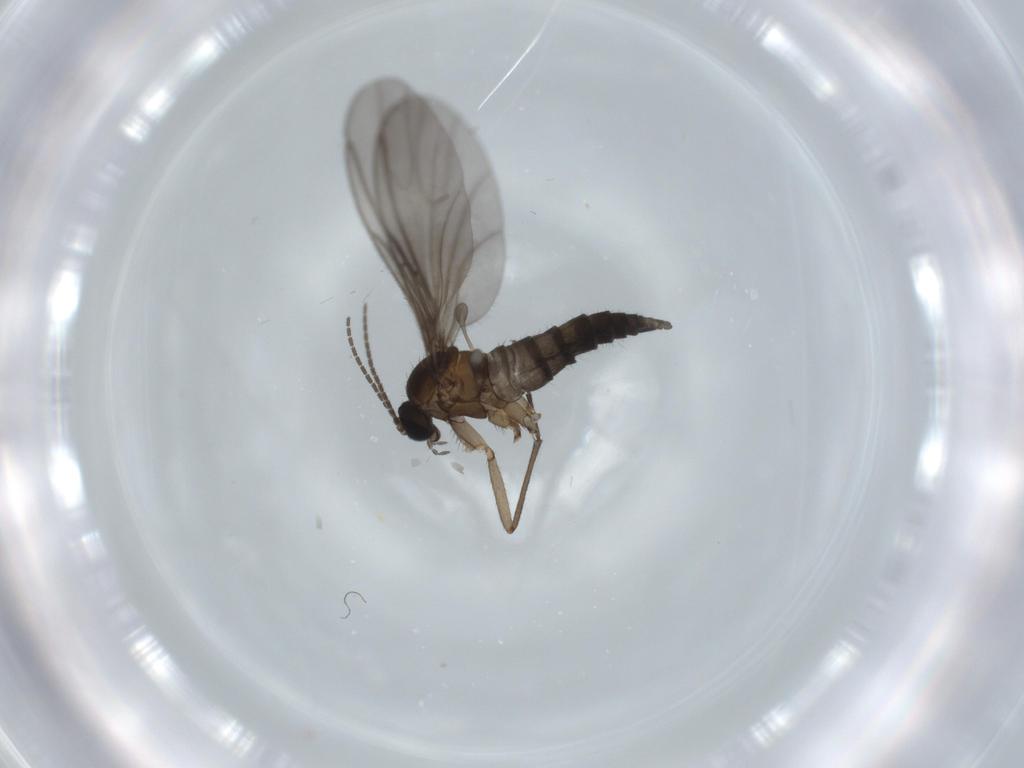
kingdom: Animalia
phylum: Arthropoda
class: Insecta
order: Diptera
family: Sciaridae
